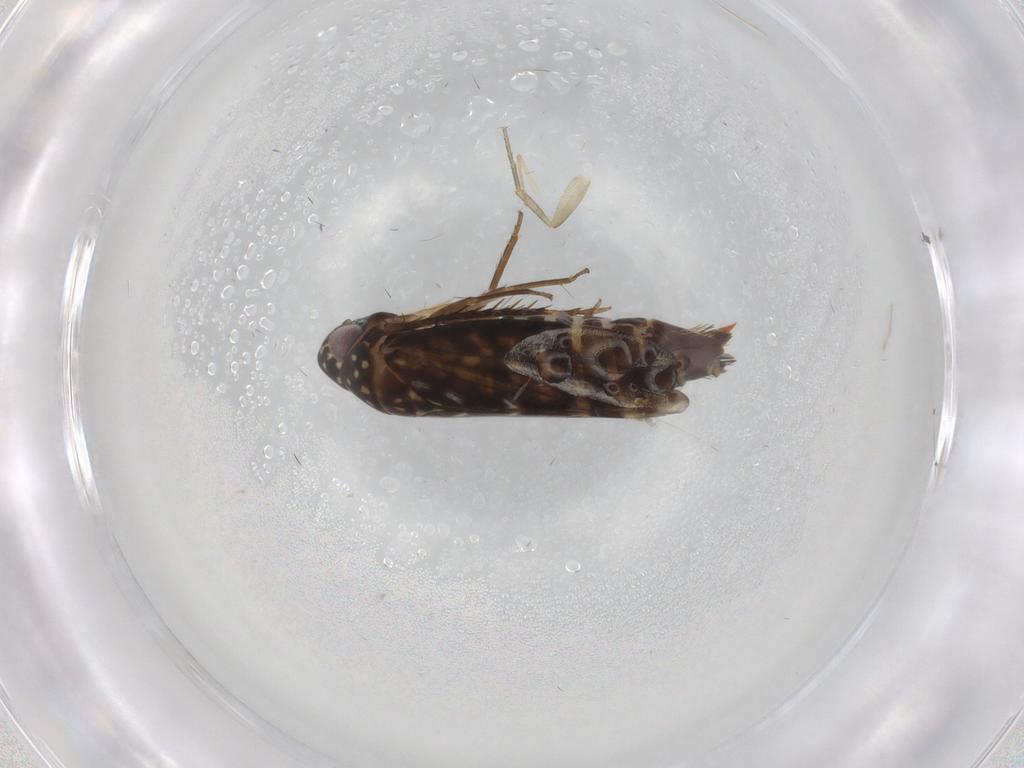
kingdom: Animalia
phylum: Arthropoda
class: Insecta
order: Hemiptera
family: Cicadellidae
